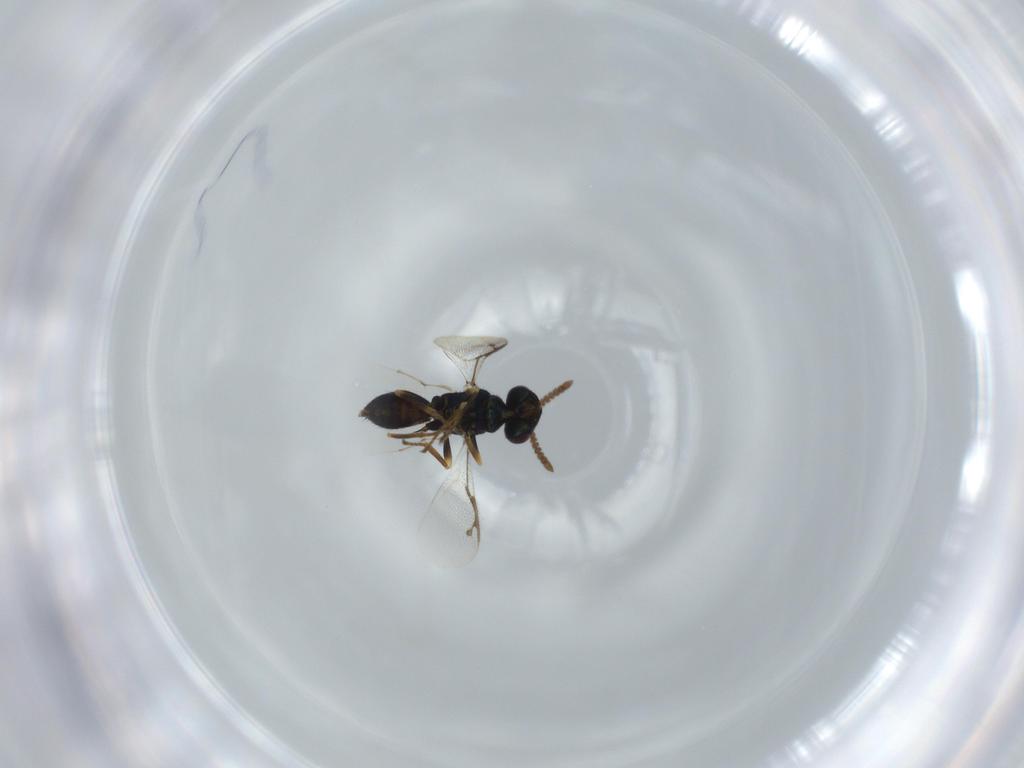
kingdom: Animalia
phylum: Arthropoda
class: Insecta
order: Hymenoptera
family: Pirenidae
